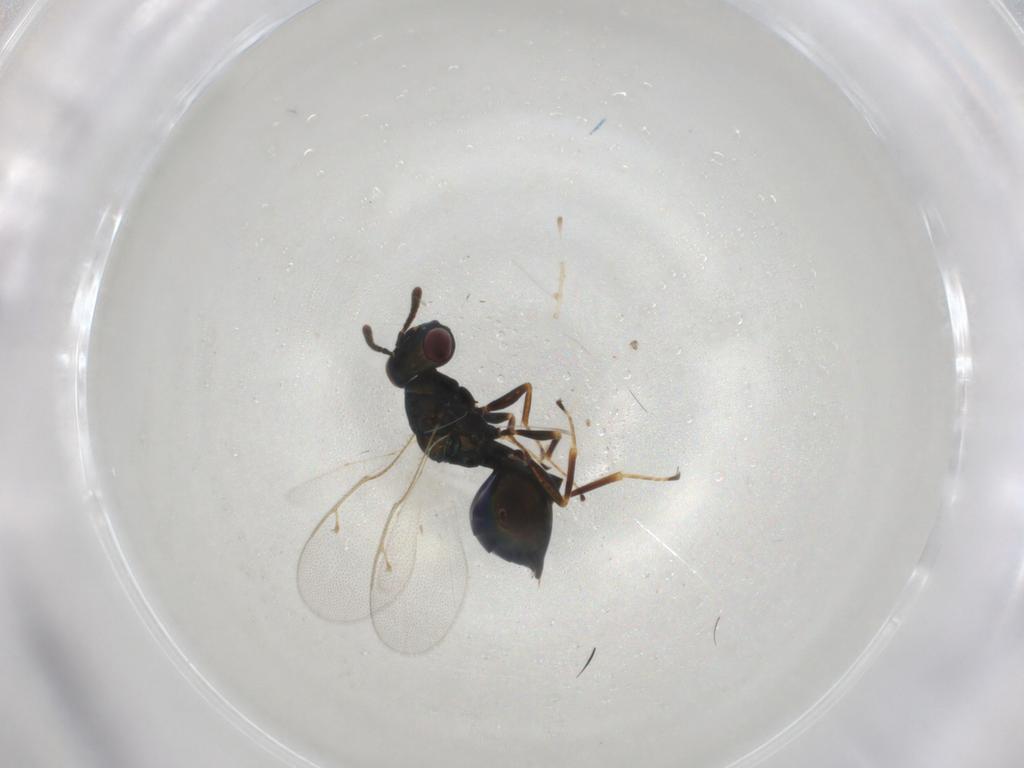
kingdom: Animalia
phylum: Arthropoda
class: Insecta
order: Hymenoptera
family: Pteromalidae
